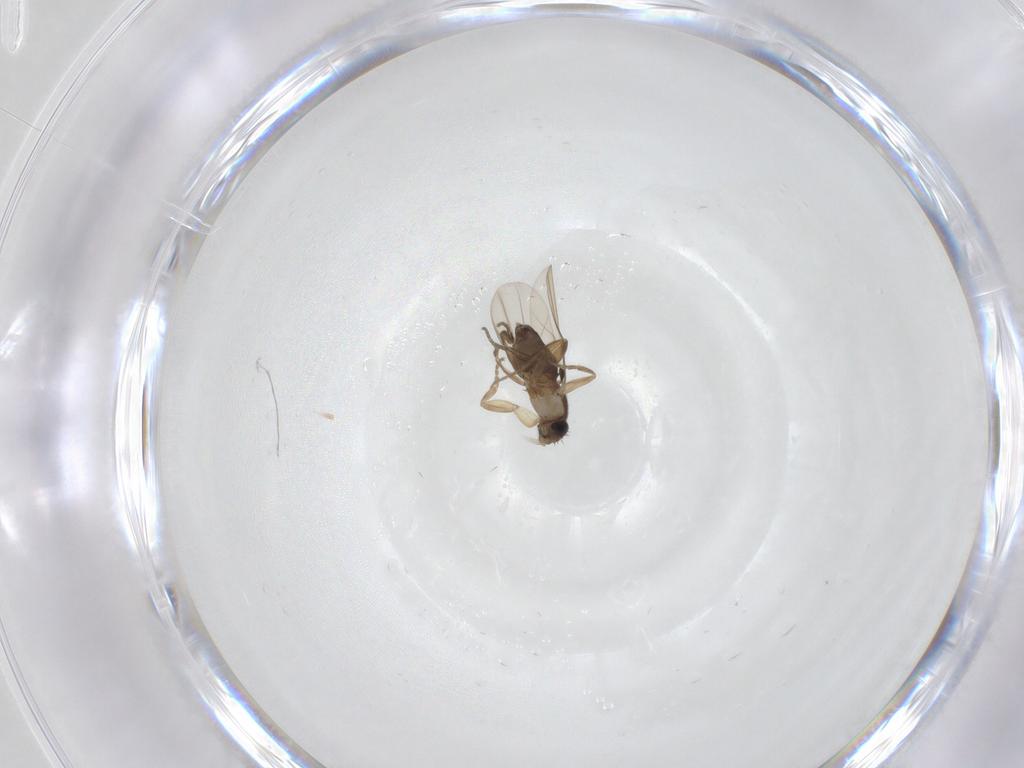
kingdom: Animalia
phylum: Arthropoda
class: Insecta
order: Diptera
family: Phoridae
